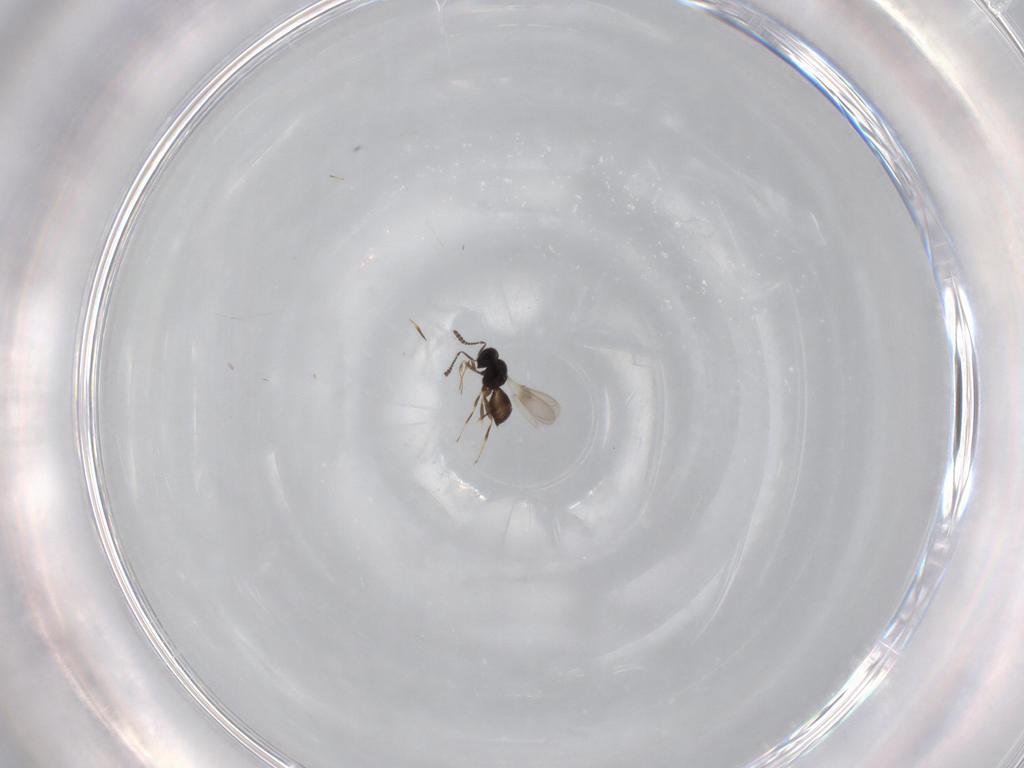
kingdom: Animalia
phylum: Arthropoda
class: Insecta
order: Hymenoptera
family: Scelionidae
